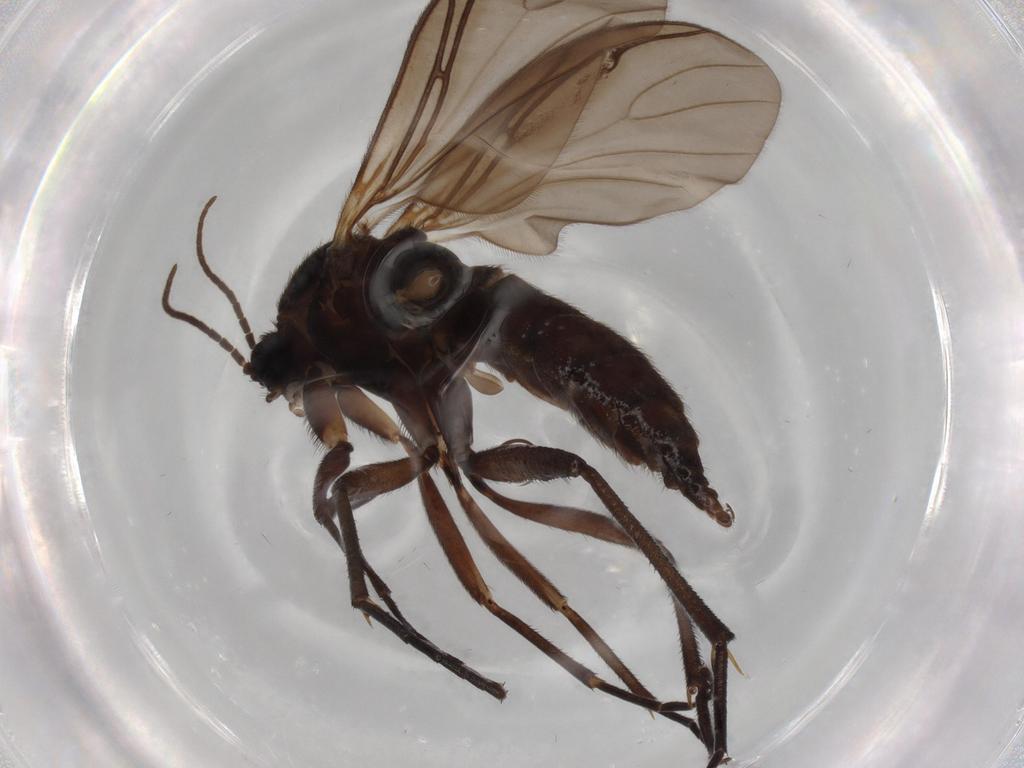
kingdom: Animalia
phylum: Arthropoda
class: Insecta
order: Diptera
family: Heleomyzidae
